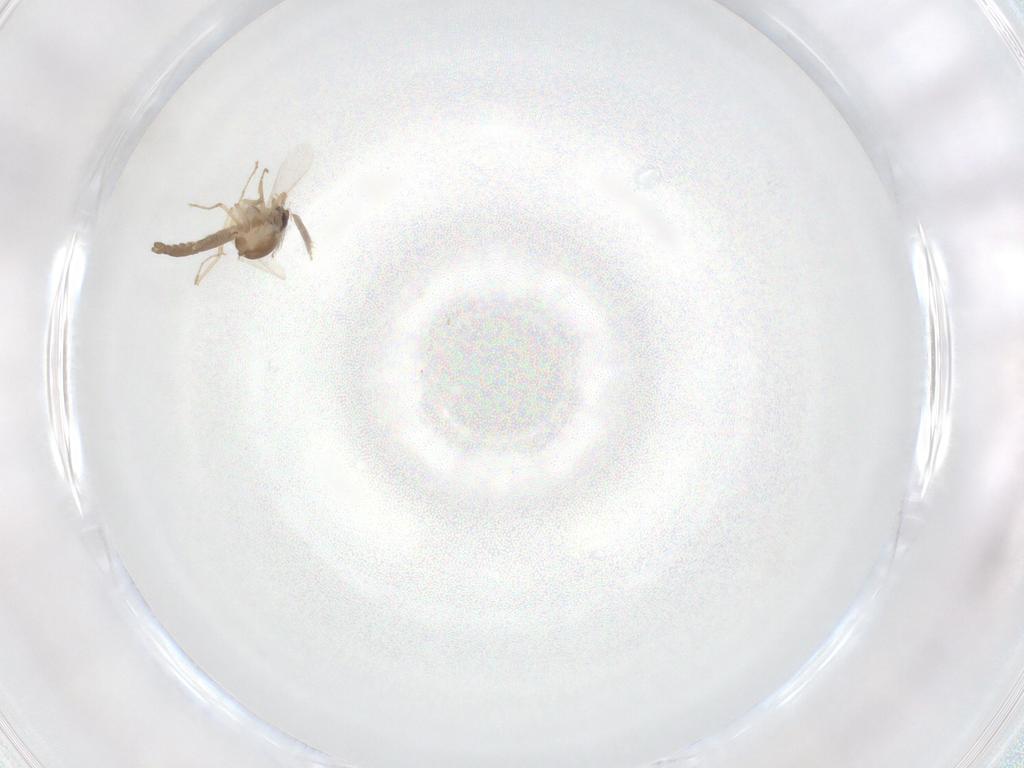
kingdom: Animalia
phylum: Arthropoda
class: Insecta
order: Diptera
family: Ceratopogonidae
